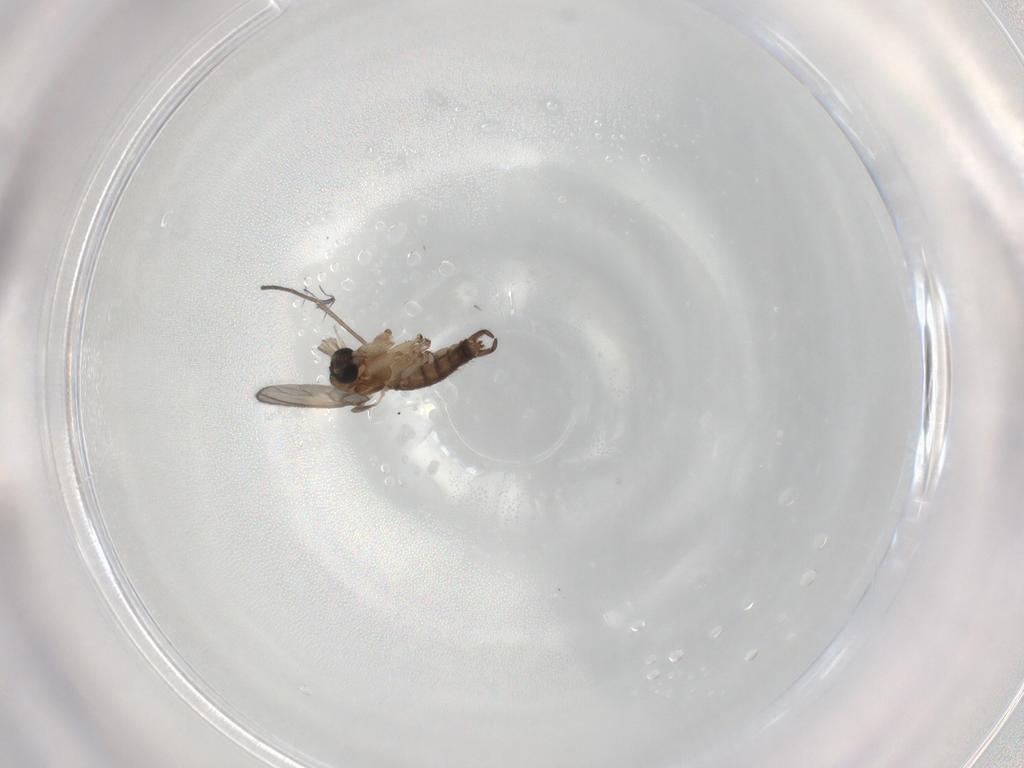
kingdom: Animalia
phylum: Arthropoda
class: Insecta
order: Diptera
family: Sciaridae
